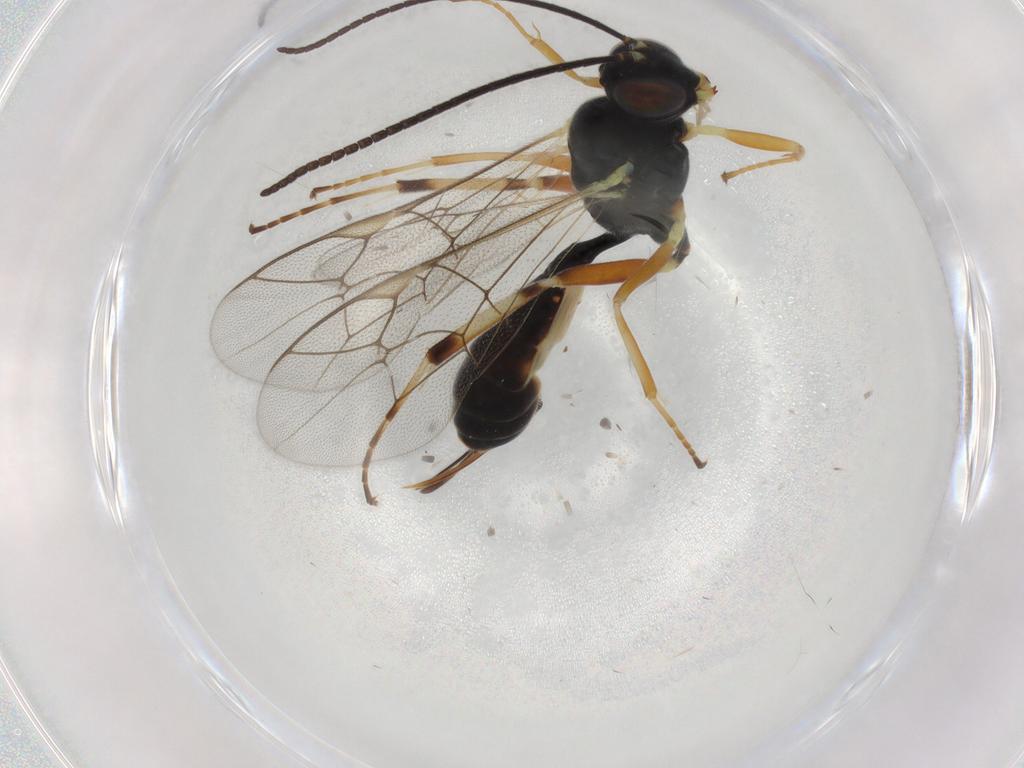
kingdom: Animalia
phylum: Arthropoda
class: Insecta
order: Hymenoptera
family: Ichneumonidae
